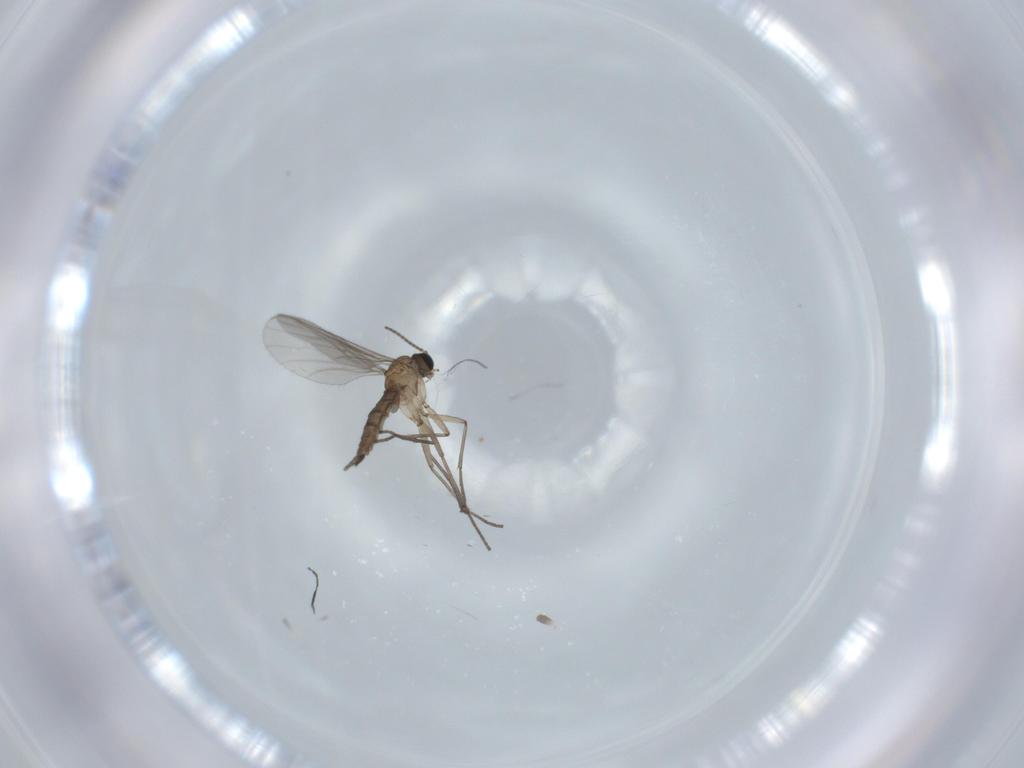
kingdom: Animalia
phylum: Arthropoda
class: Insecta
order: Diptera
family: Sciaridae
